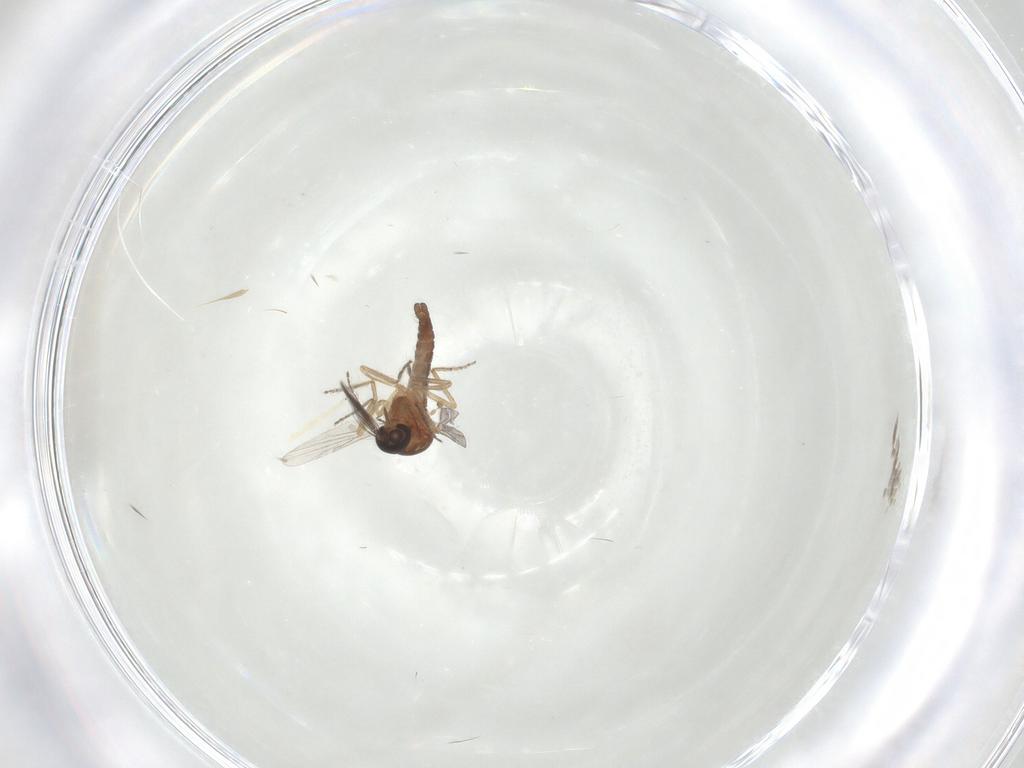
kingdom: Animalia
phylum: Arthropoda
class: Insecta
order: Diptera
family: Ceratopogonidae
